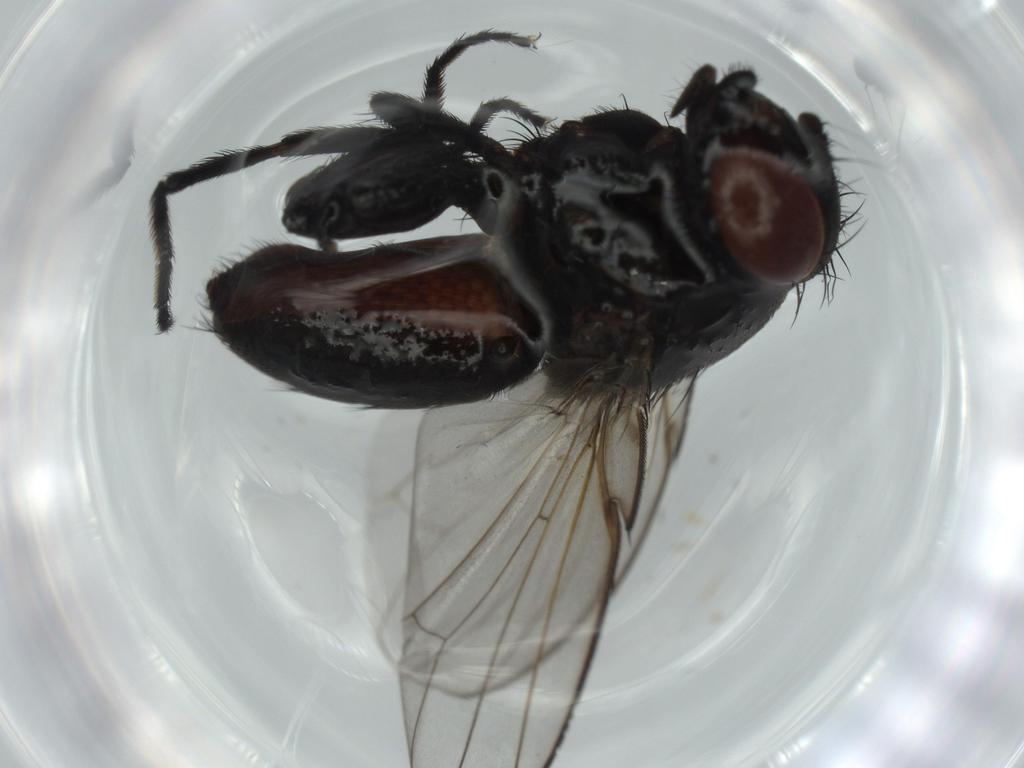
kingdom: Animalia
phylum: Arthropoda
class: Insecta
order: Diptera
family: Milichiidae
